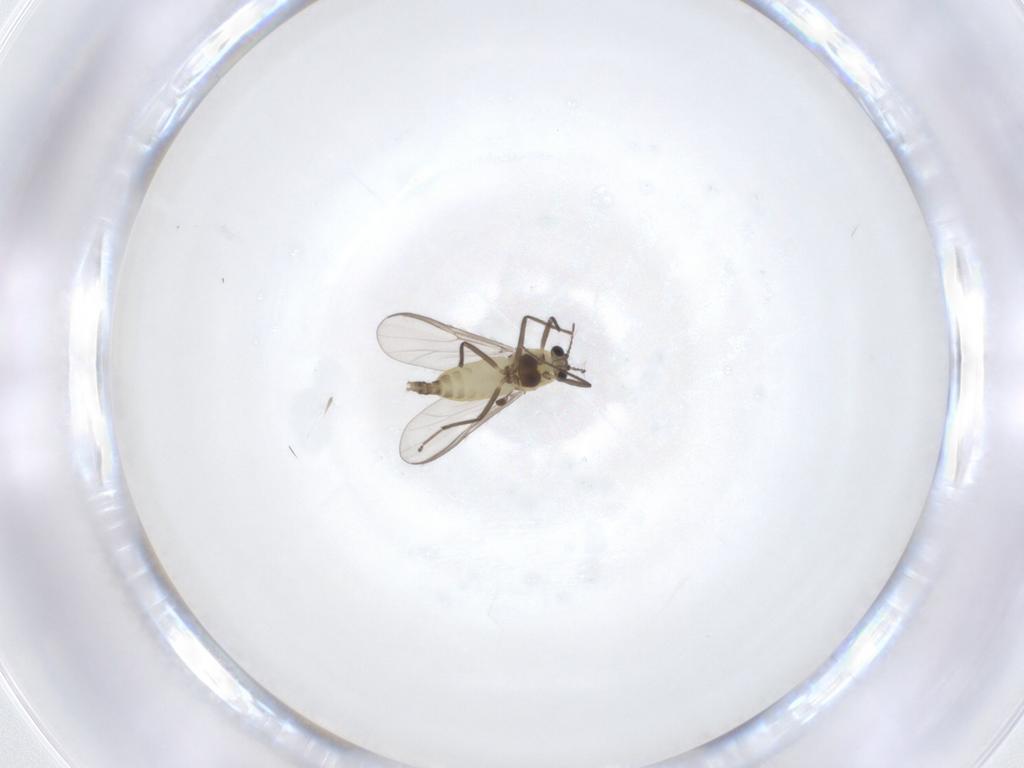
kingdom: Animalia
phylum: Arthropoda
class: Insecta
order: Diptera
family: Chironomidae
